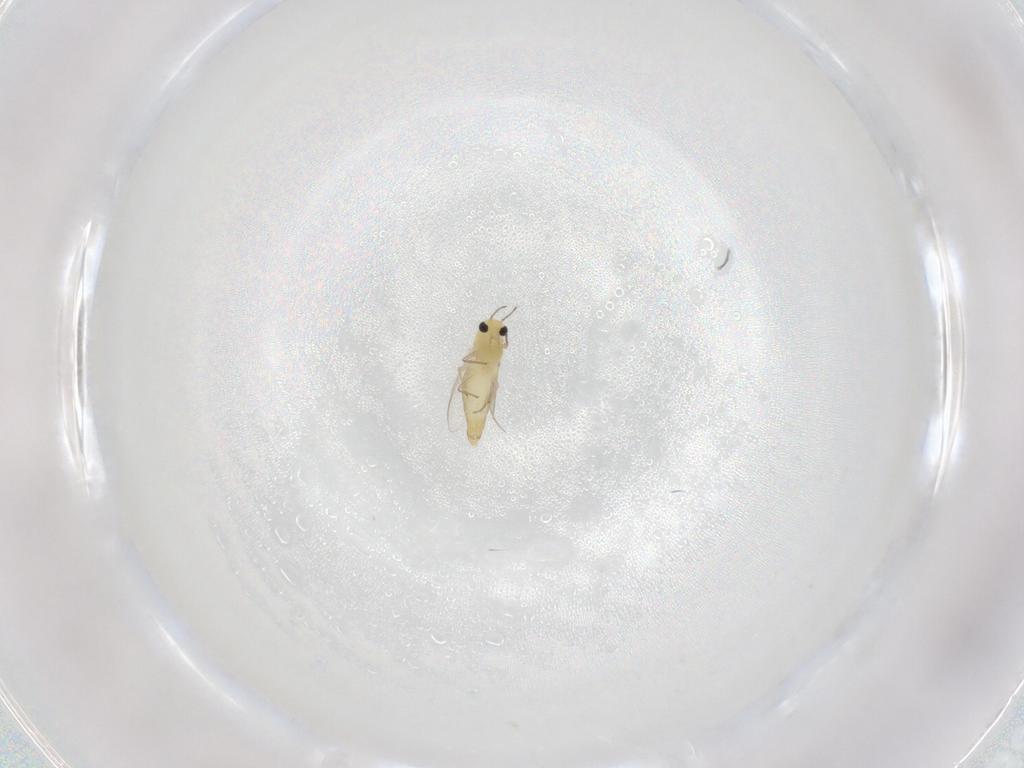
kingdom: Animalia
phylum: Arthropoda
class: Insecta
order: Diptera
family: Chironomidae
